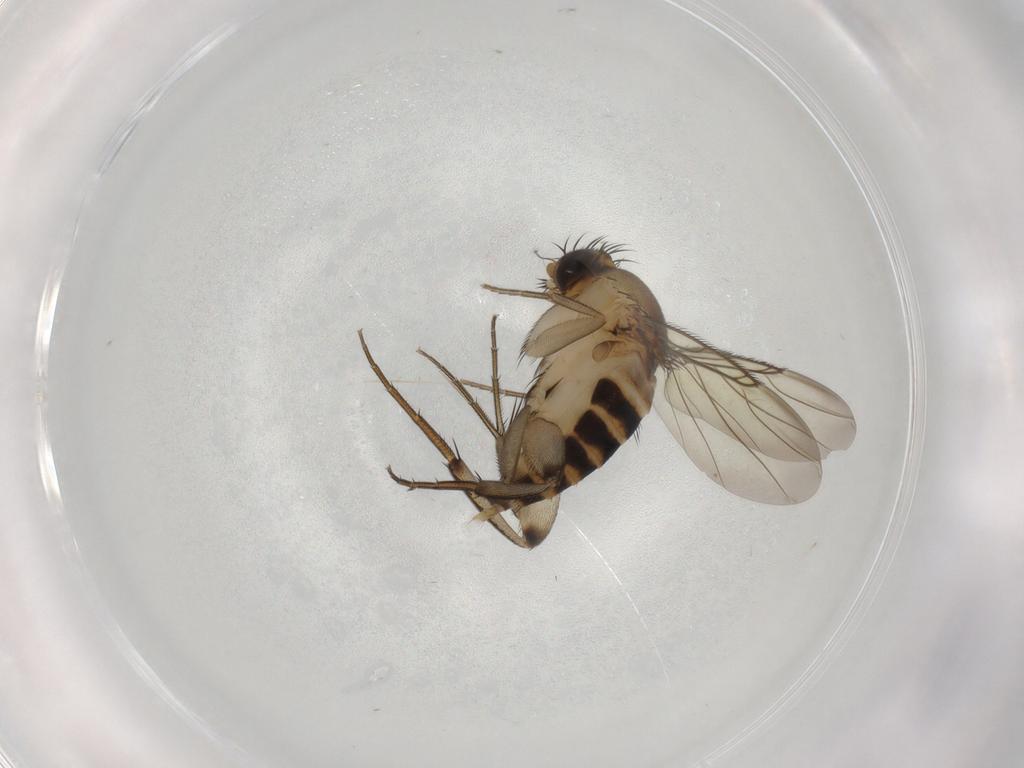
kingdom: Animalia
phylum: Arthropoda
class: Insecta
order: Diptera
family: Phoridae
